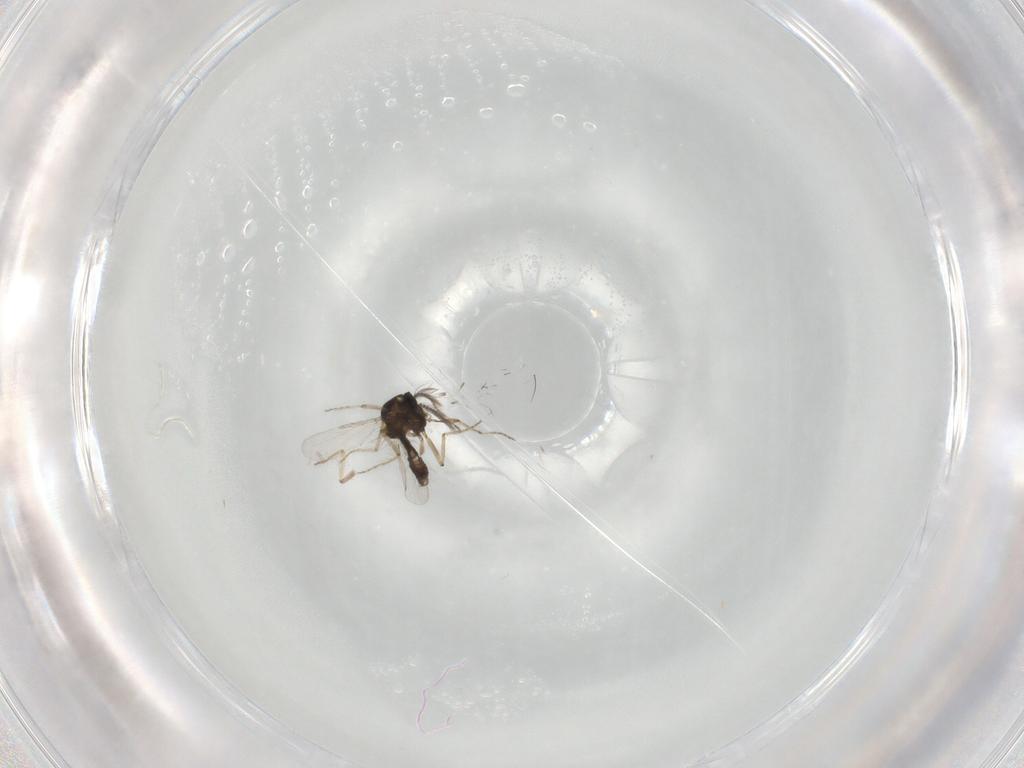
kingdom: Animalia
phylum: Arthropoda
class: Insecta
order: Diptera
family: Ceratopogonidae
